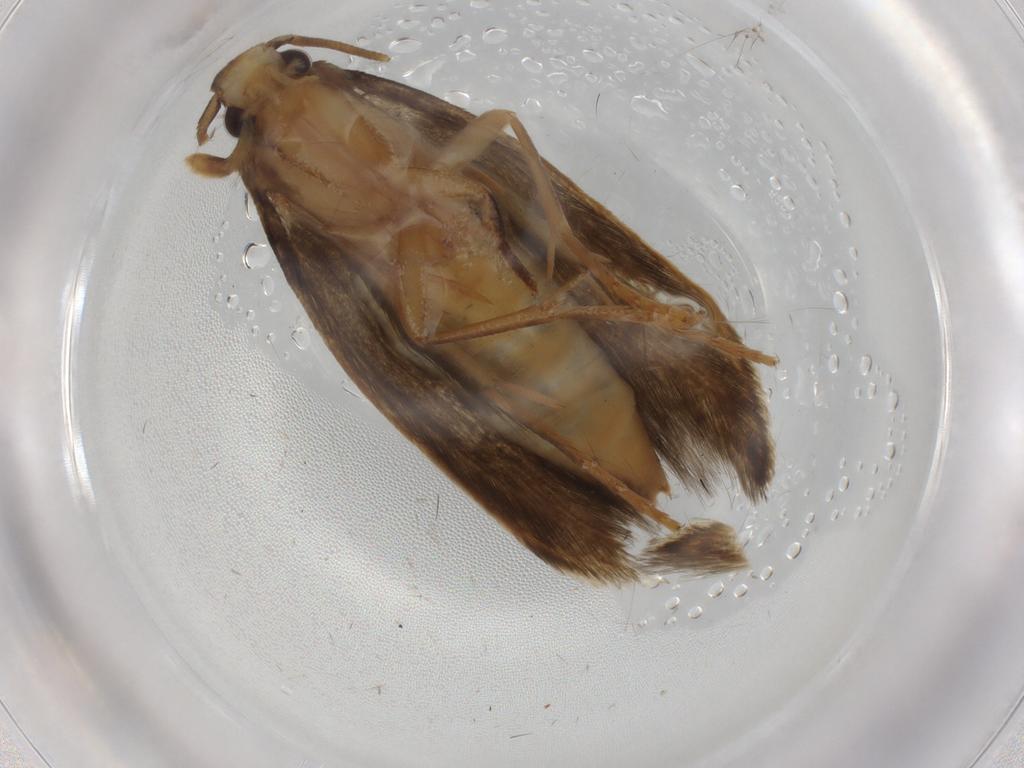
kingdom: Animalia
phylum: Arthropoda
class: Insecta
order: Lepidoptera
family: Tineidae
